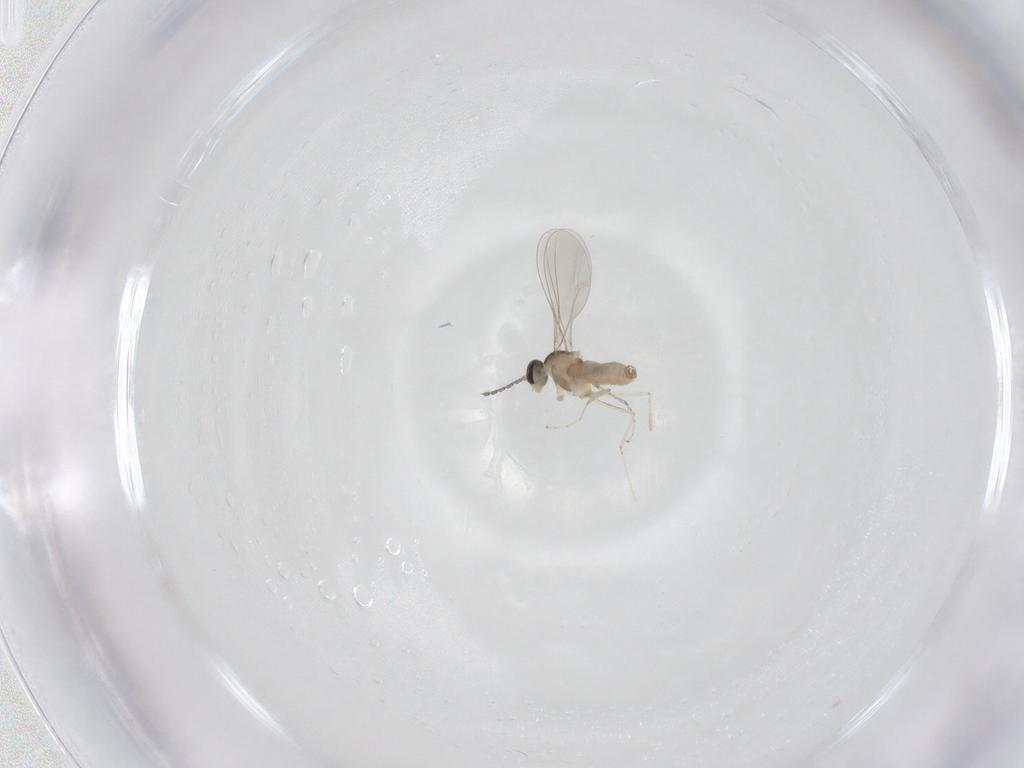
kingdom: Animalia
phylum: Arthropoda
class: Insecta
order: Diptera
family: Cecidomyiidae
